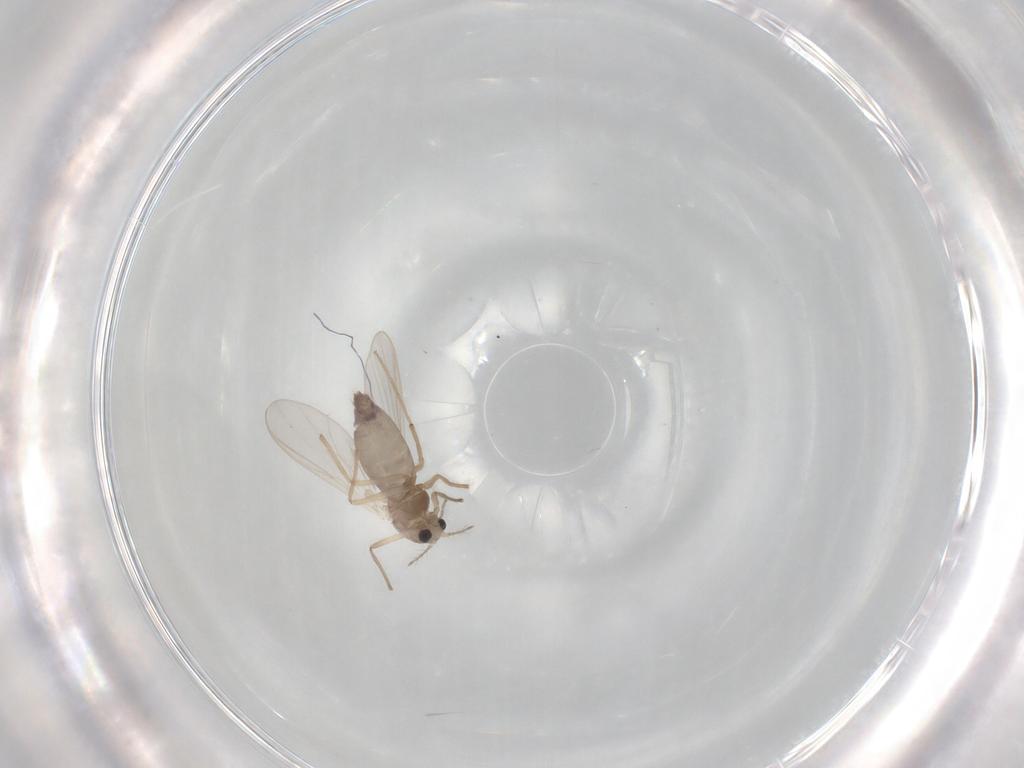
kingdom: Animalia
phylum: Arthropoda
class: Insecta
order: Diptera
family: Chironomidae
